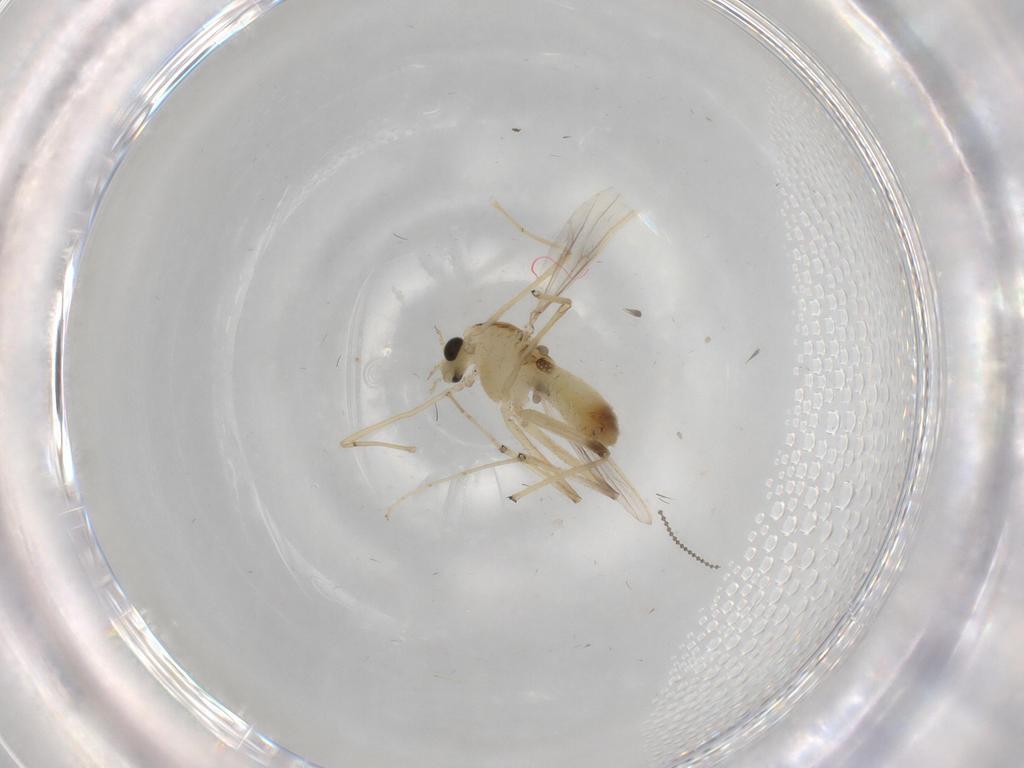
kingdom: Animalia
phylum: Arthropoda
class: Insecta
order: Diptera
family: Chironomidae
